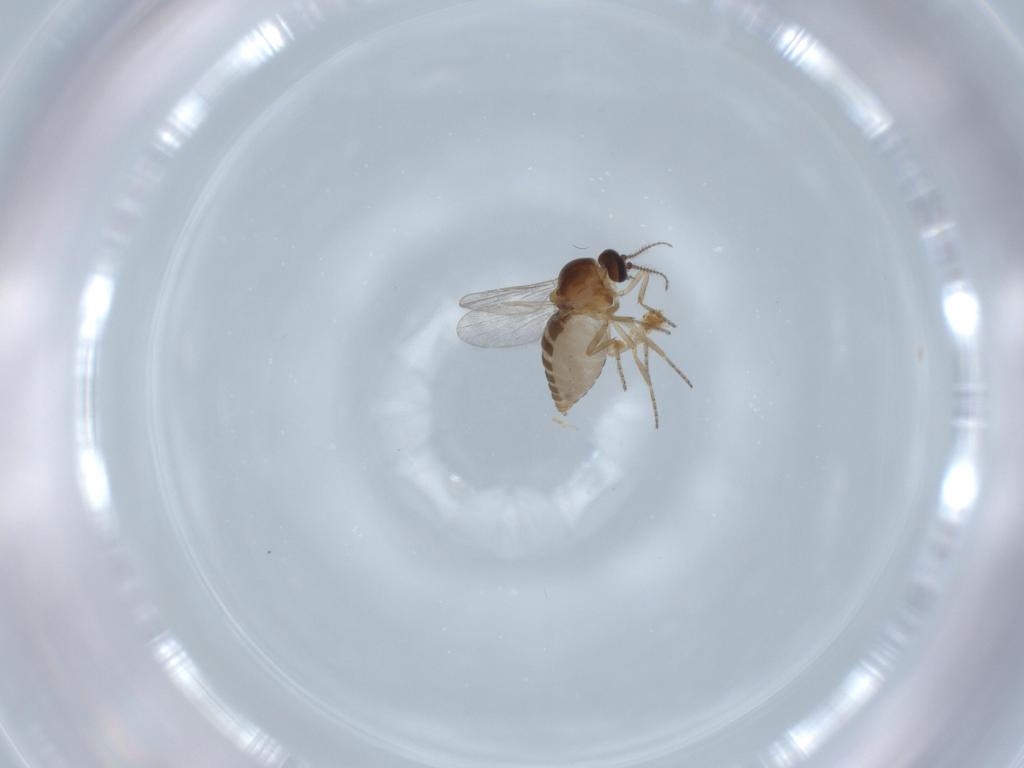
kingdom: Animalia
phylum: Arthropoda
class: Insecta
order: Diptera
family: Ceratopogonidae
